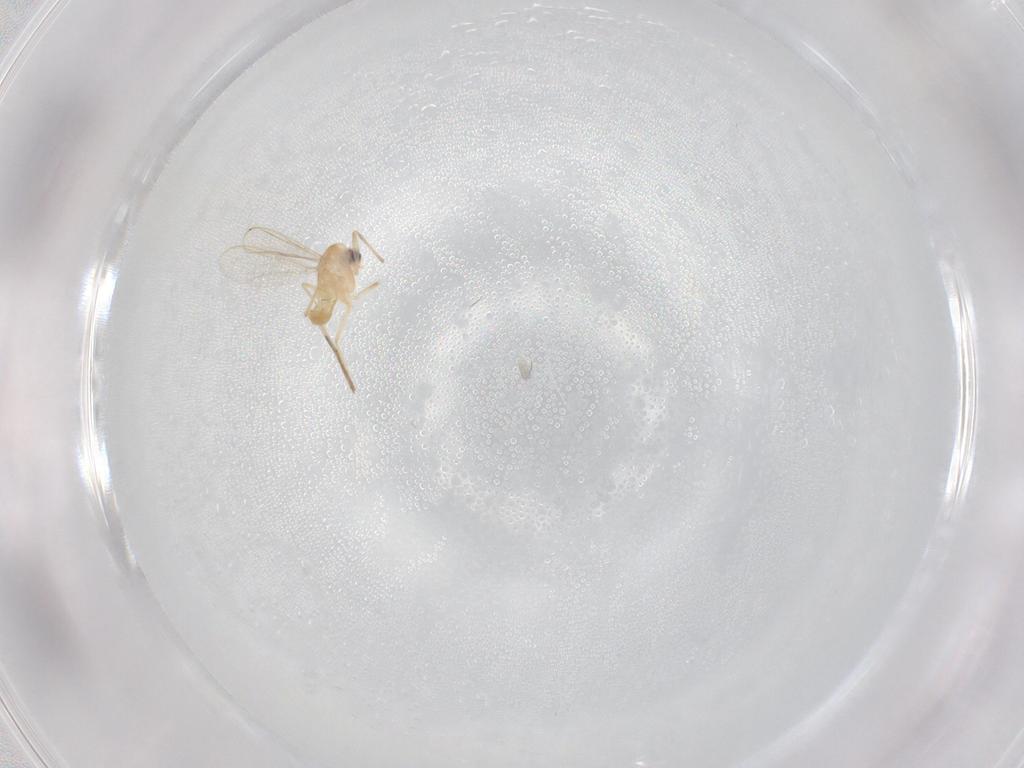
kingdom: Animalia
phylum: Arthropoda
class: Insecta
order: Diptera
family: Chironomidae
